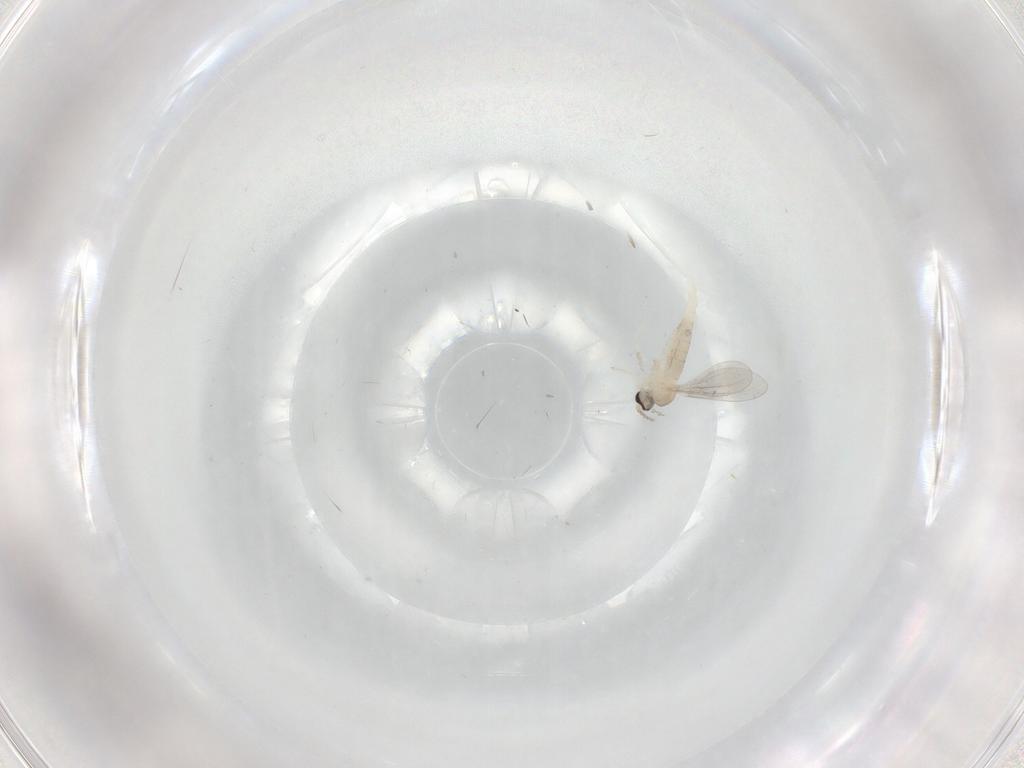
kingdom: Animalia
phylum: Arthropoda
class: Insecta
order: Diptera
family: Cecidomyiidae
